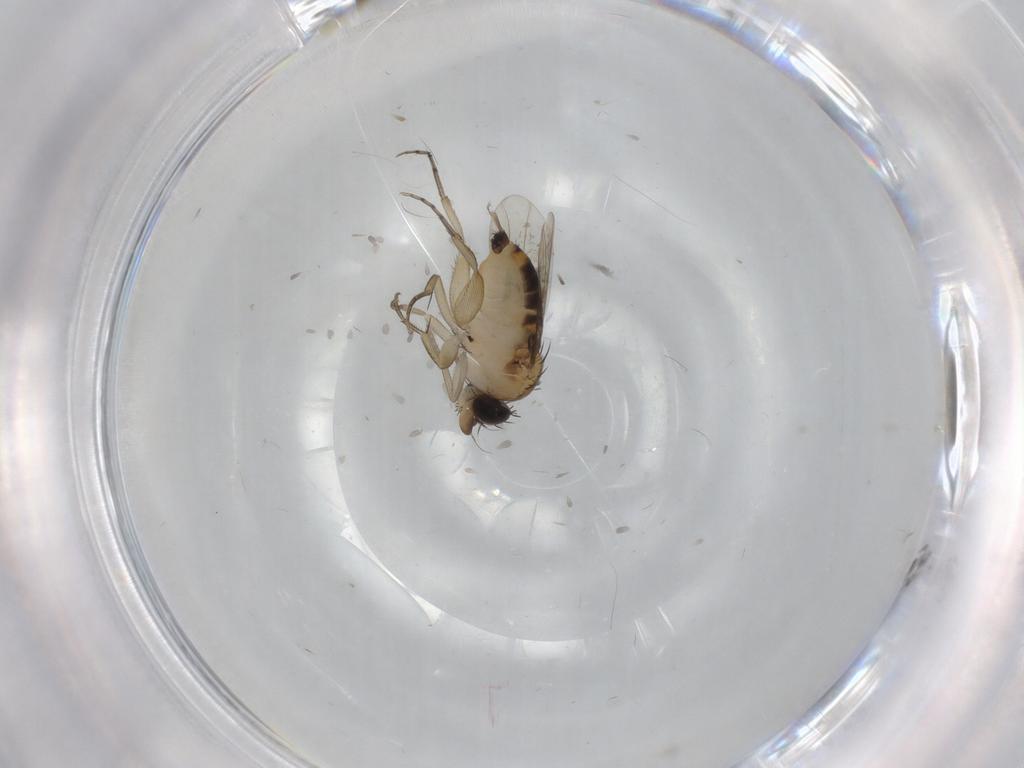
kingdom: Animalia
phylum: Arthropoda
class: Insecta
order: Diptera
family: Phoridae
